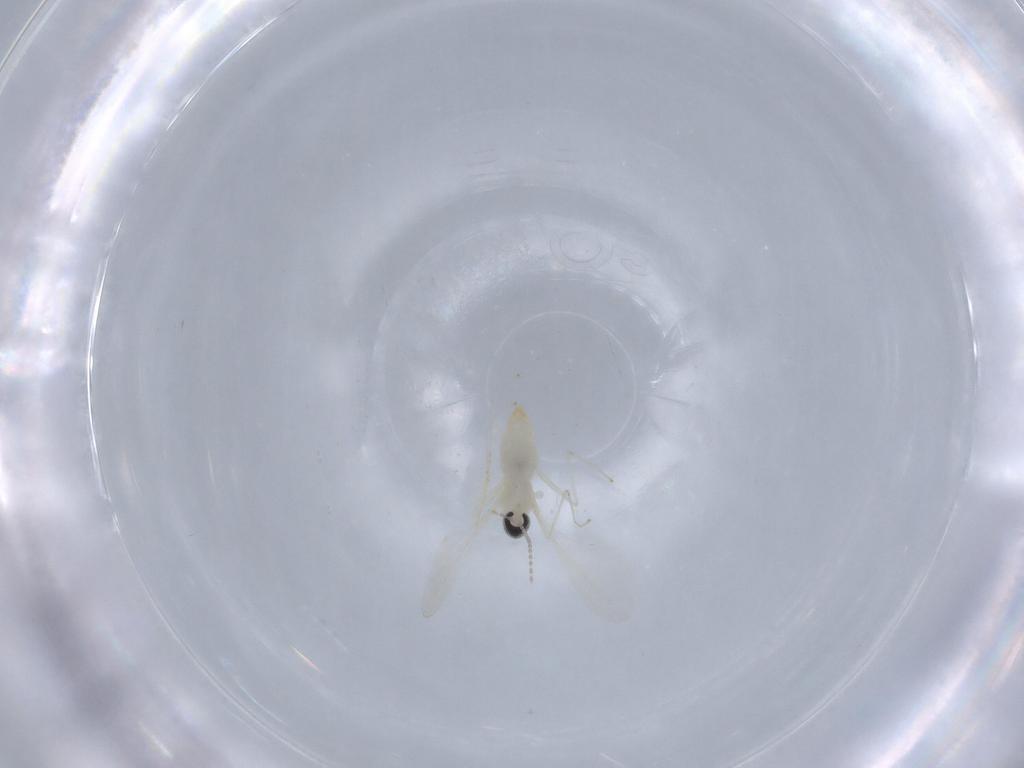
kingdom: Animalia
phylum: Arthropoda
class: Insecta
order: Diptera
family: Cecidomyiidae
